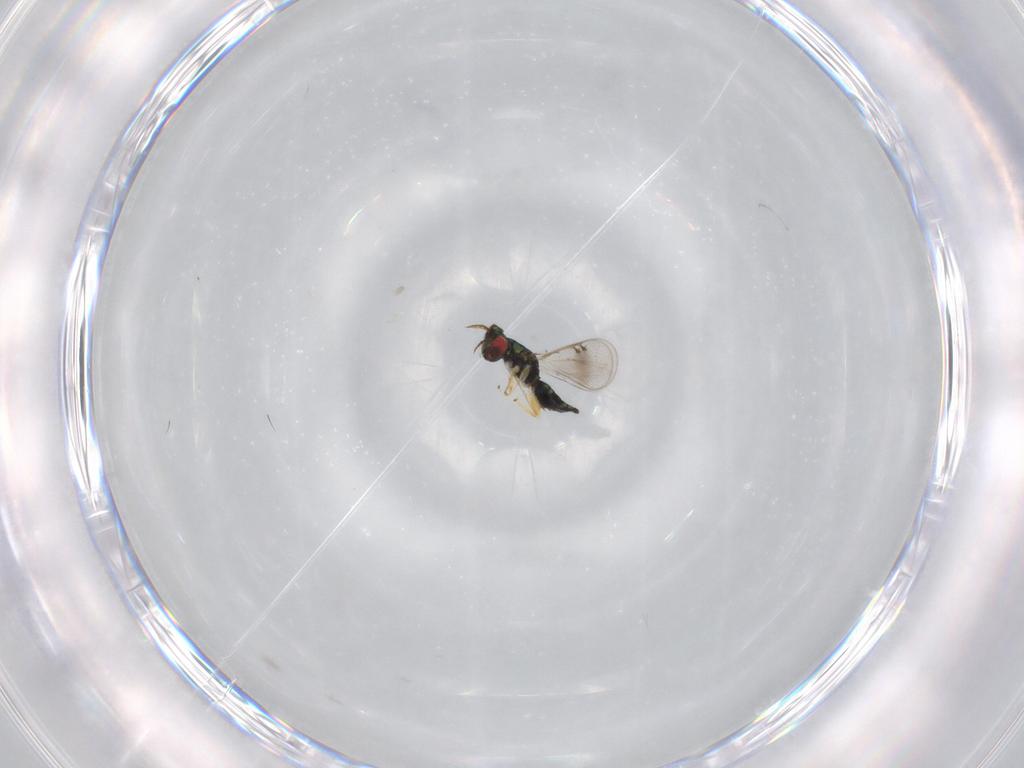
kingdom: Animalia
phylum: Arthropoda
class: Insecta
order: Hymenoptera
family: Eulophidae
